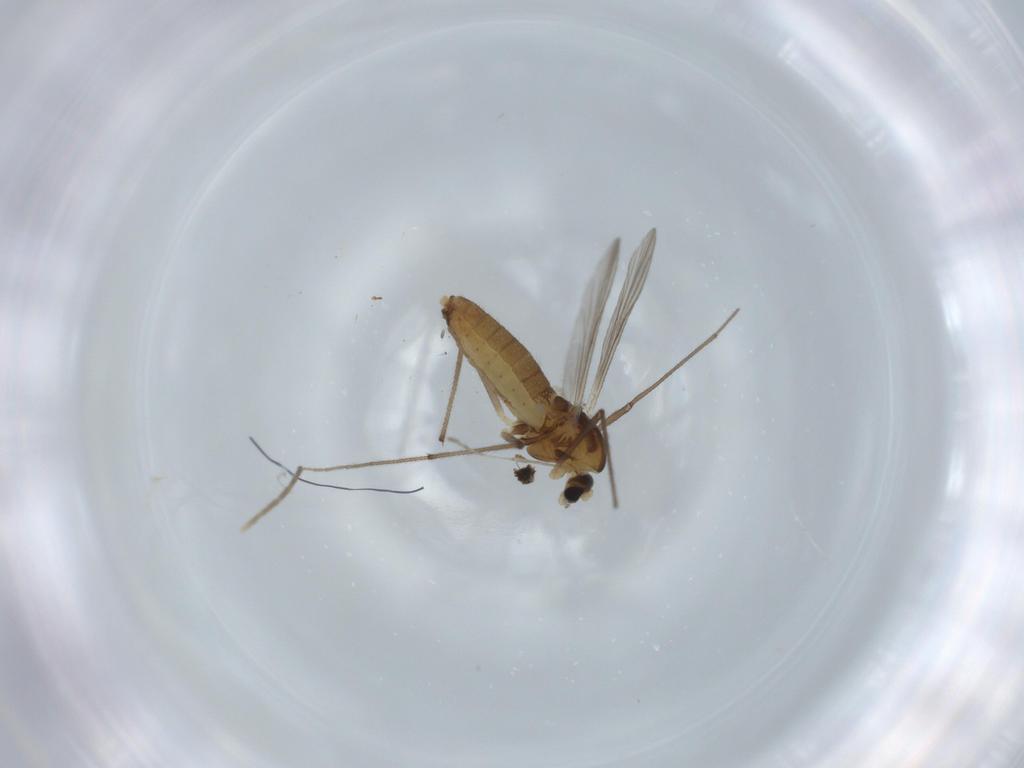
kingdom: Animalia
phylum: Arthropoda
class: Insecta
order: Diptera
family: Chironomidae
